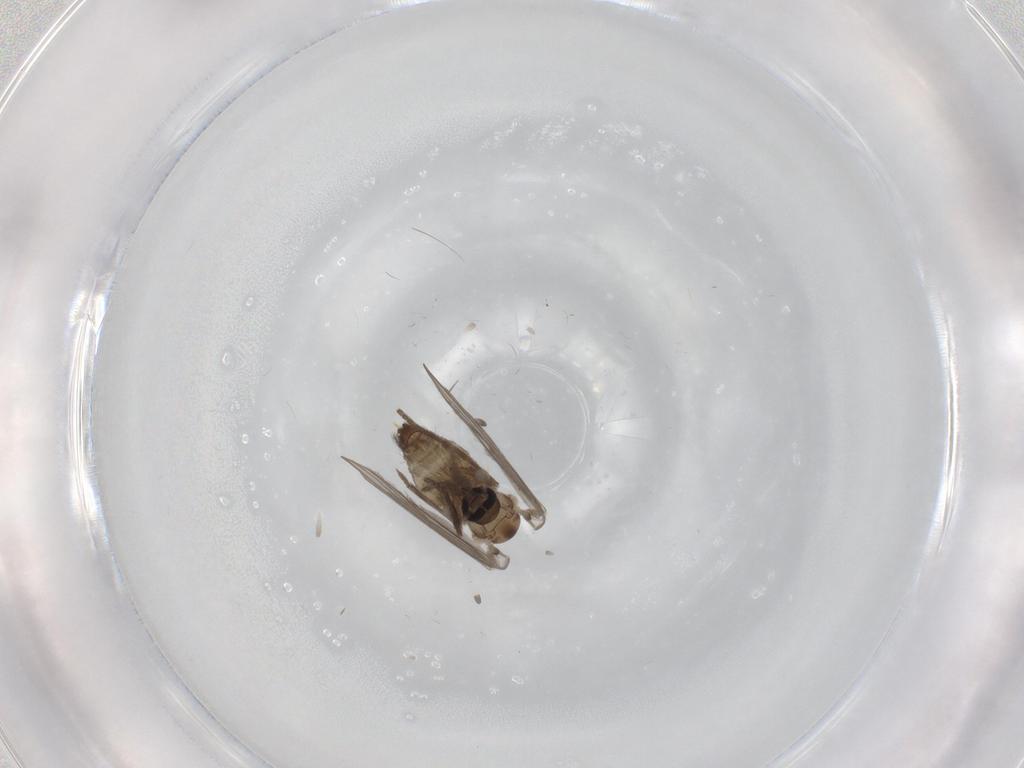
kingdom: Animalia
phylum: Arthropoda
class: Insecta
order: Diptera
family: Psychodidae
